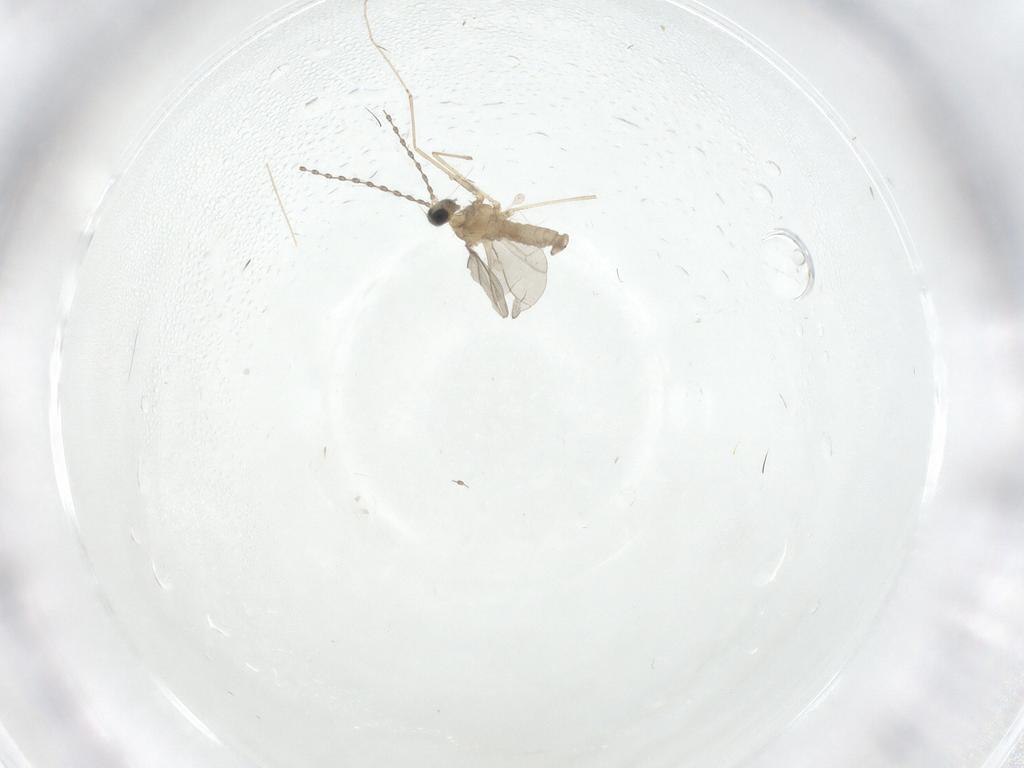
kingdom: Animalia
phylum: Arthropoda
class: Insecta
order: Diptera
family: Cecidomyiidae
